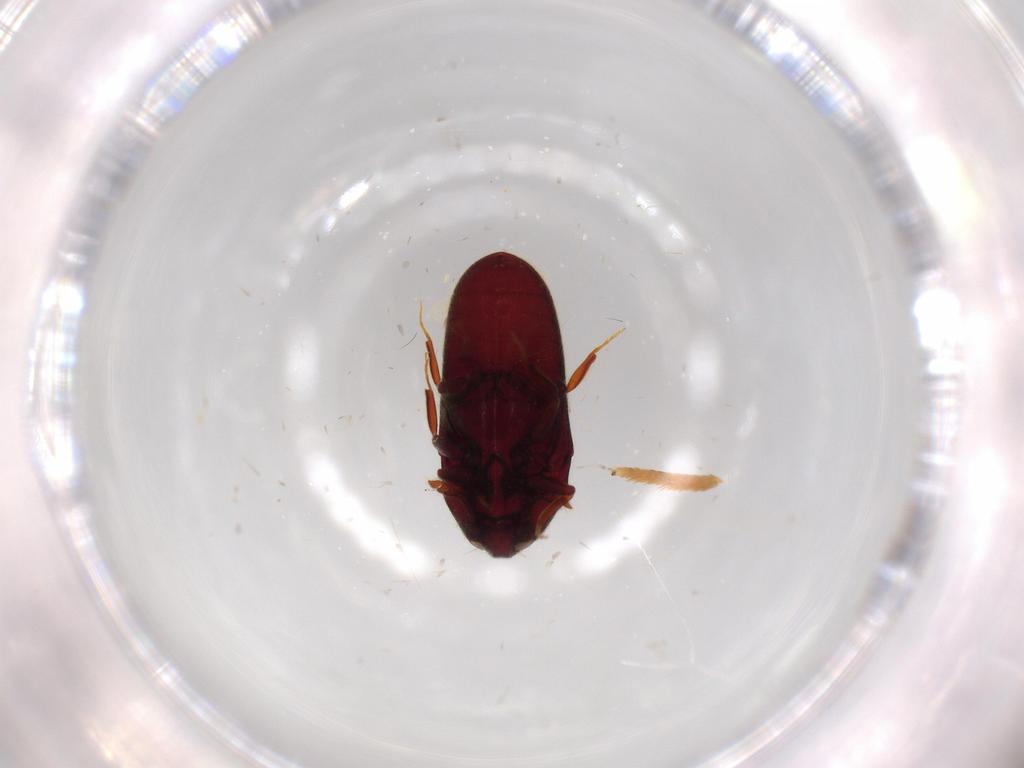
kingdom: Animalia
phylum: Arthropoda
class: Insecta
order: Coleoptera
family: Throscidae
